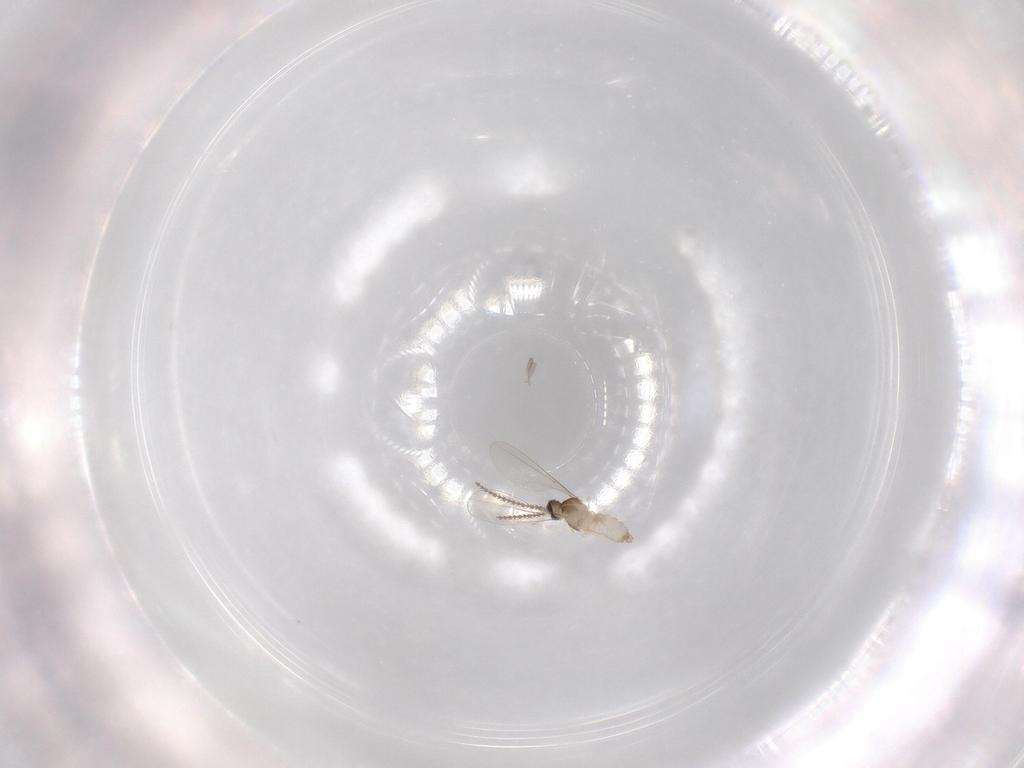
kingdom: Animalia
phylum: Arthropoda
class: Insecta
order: Diptera
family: Cecidomyiidae
